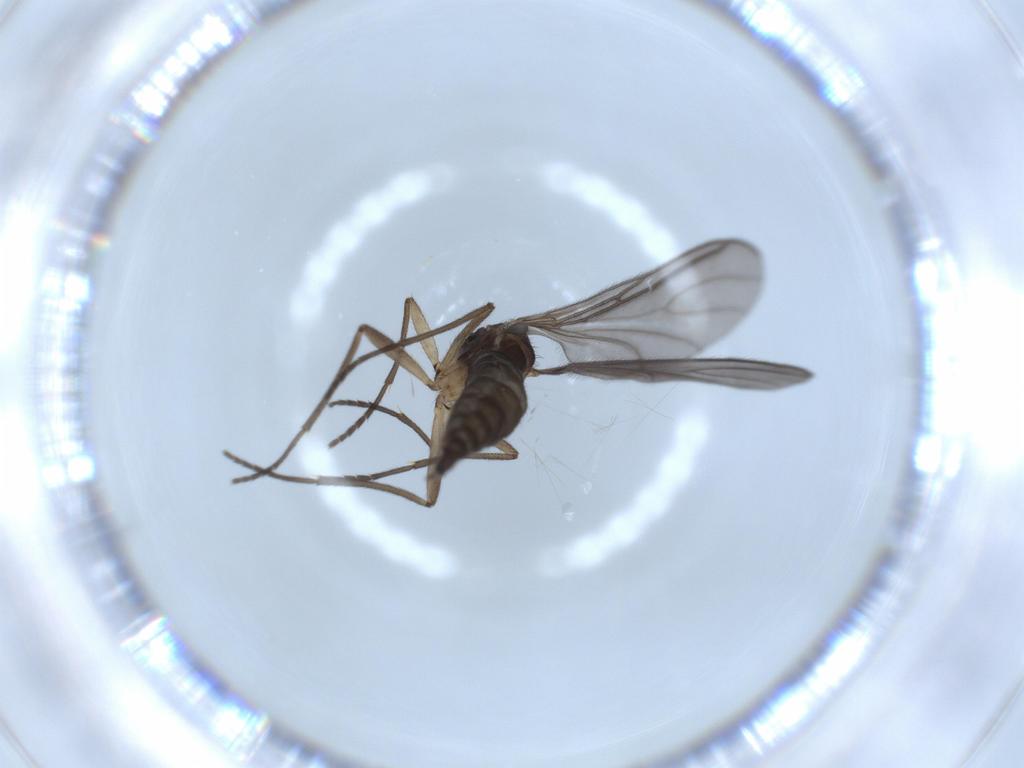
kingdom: Animalia
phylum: Arthropoda
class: Insecta
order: Diptera
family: Sciaridae
